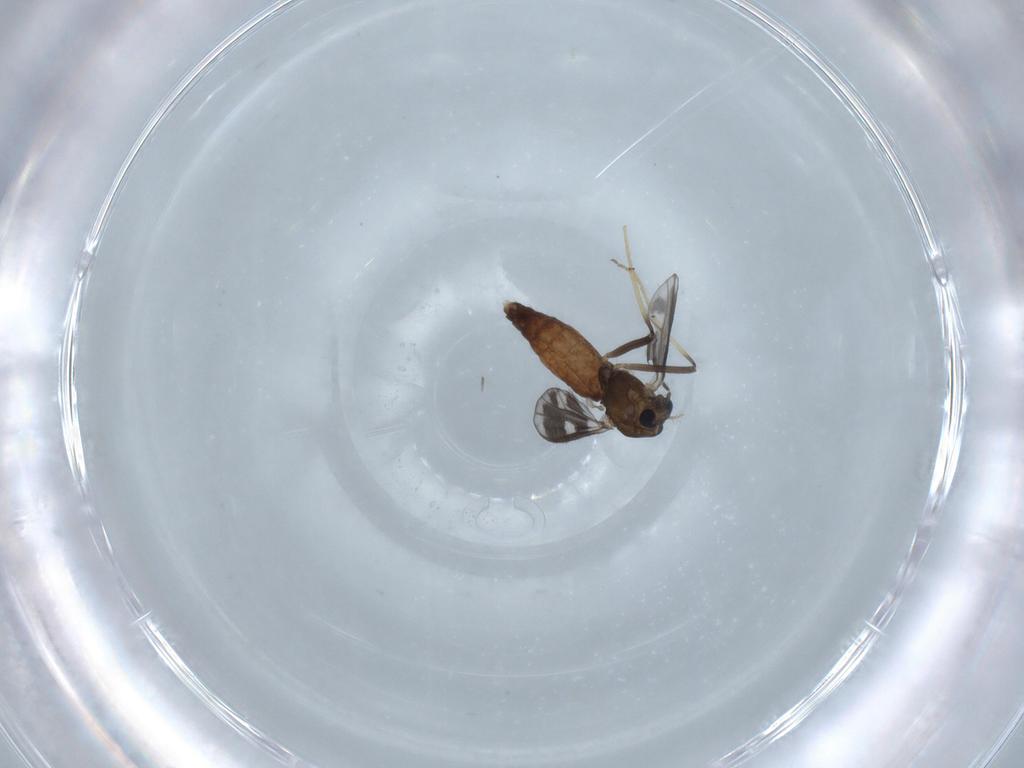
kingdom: Animalia
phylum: Arthropoda
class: Insecta
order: Diptera
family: Chironomidae
